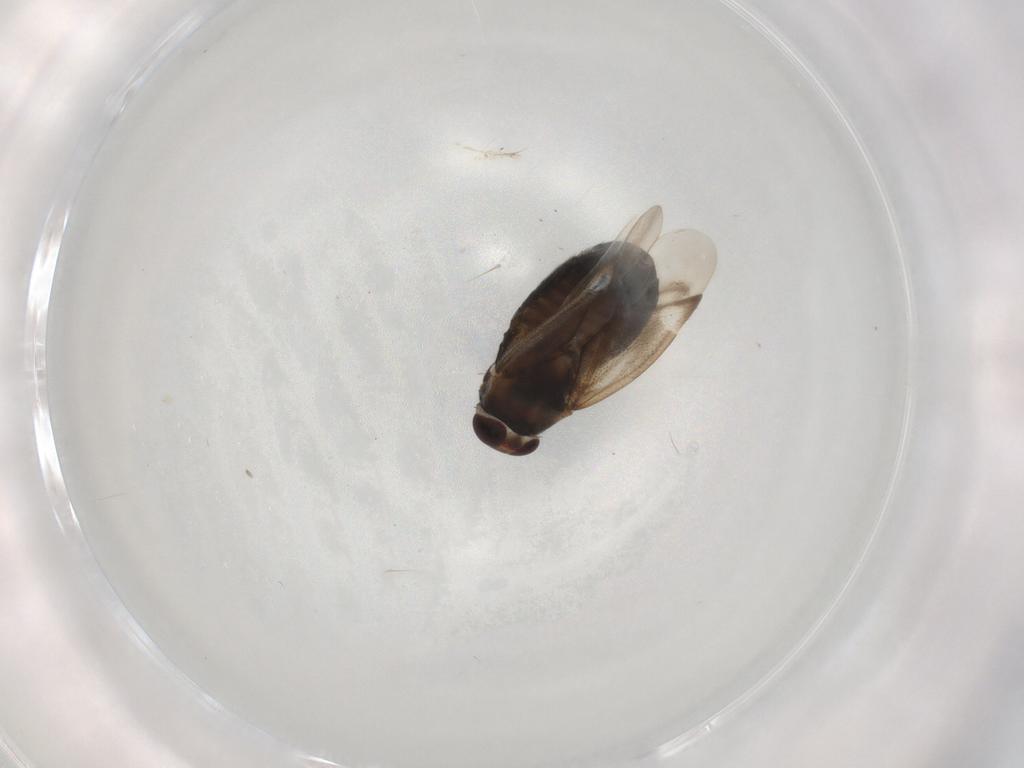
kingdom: Animalia
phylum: Arthropoda
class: Insecta
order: Hemiptera
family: Miridae
